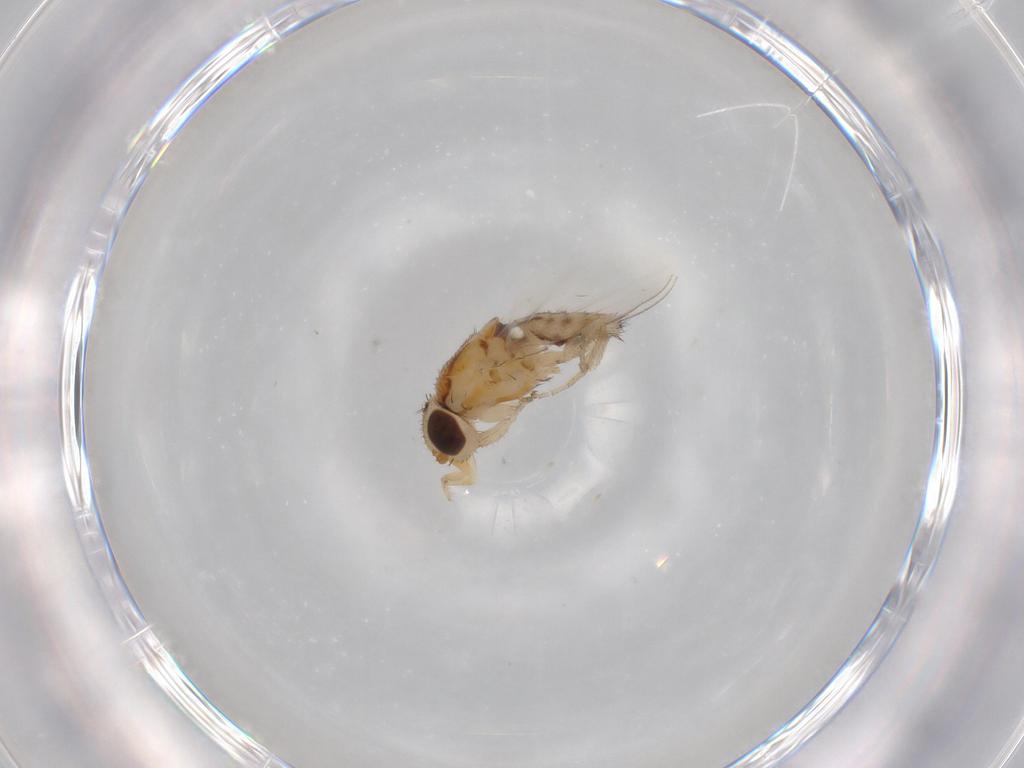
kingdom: Animalia
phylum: Arthropoda
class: Insecta
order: Diptera
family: Milichiidae
